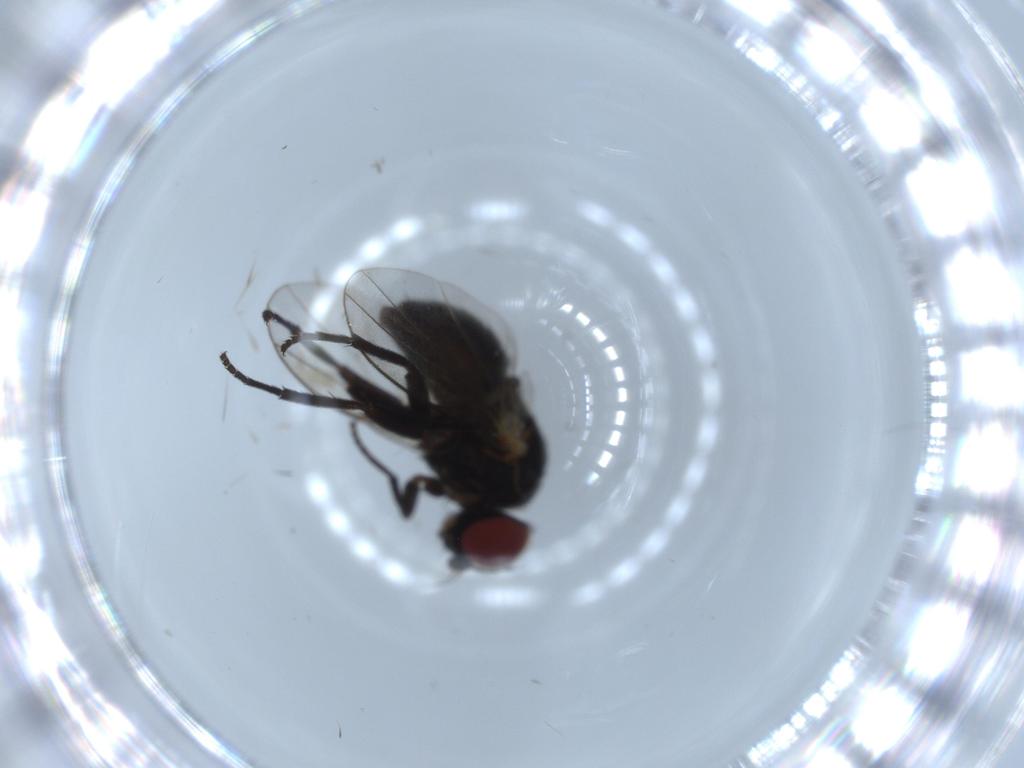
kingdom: Animalia
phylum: Arthropoda
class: Insecta
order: Diptera
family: Agromyzidae
